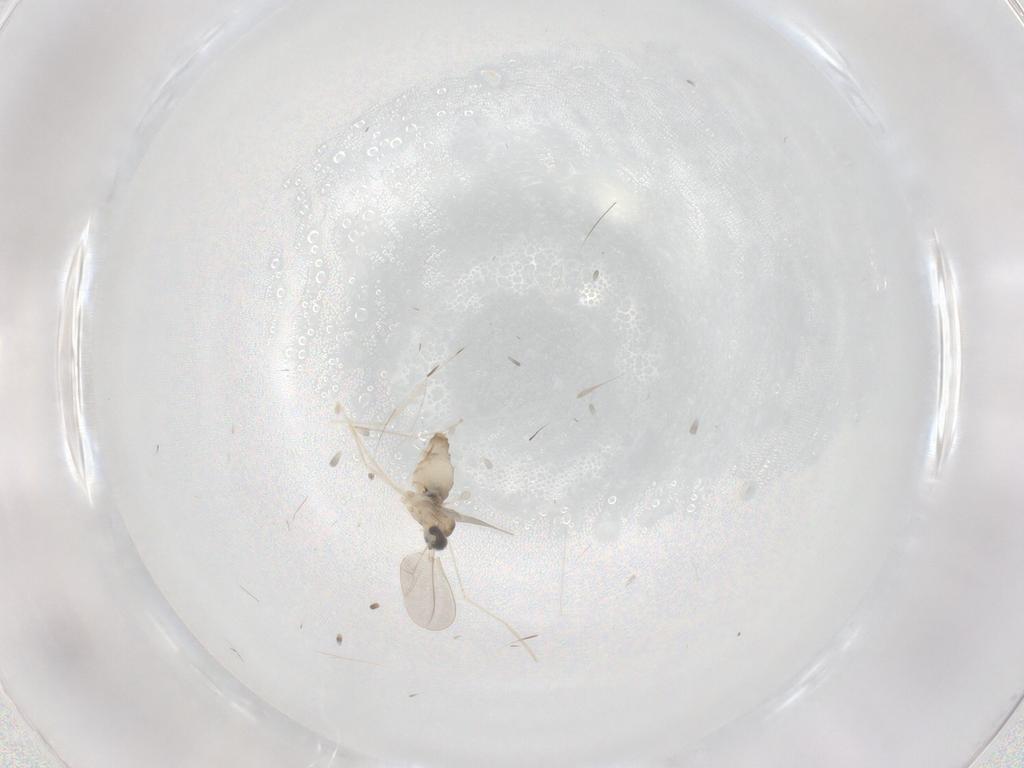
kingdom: Animalia
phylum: Arthropoda
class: Insecta
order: Diptera
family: Cecidomyiidae
